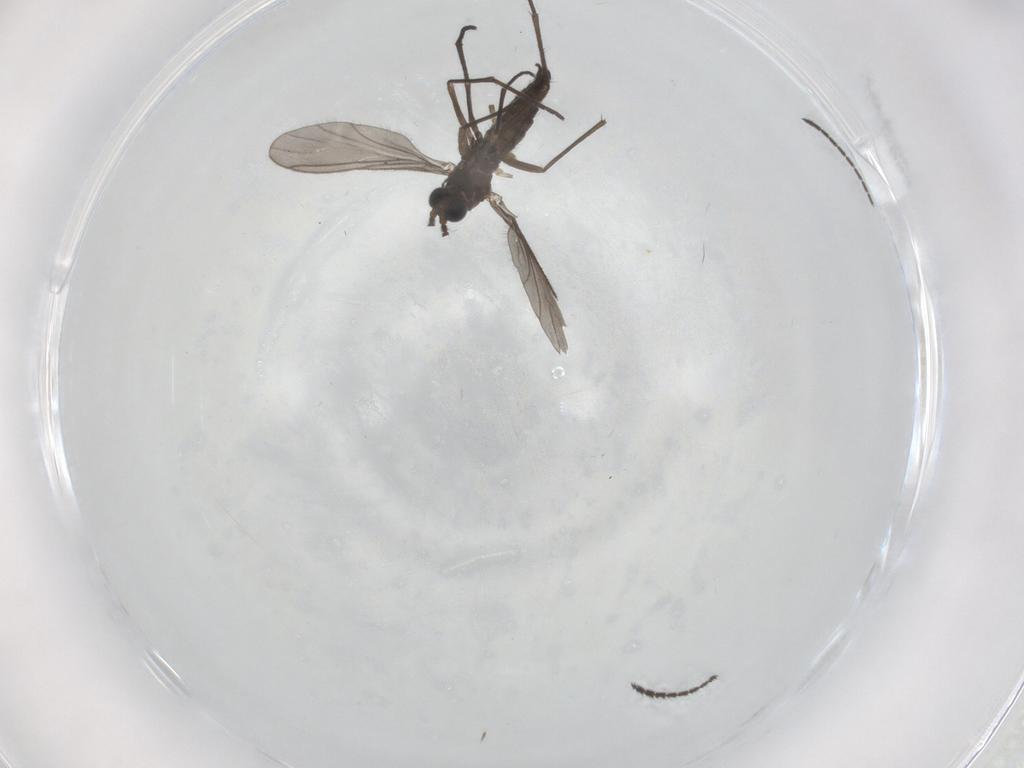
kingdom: Animalia
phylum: Arthropoda
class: Insecta
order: Diptera
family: Sciaridae
